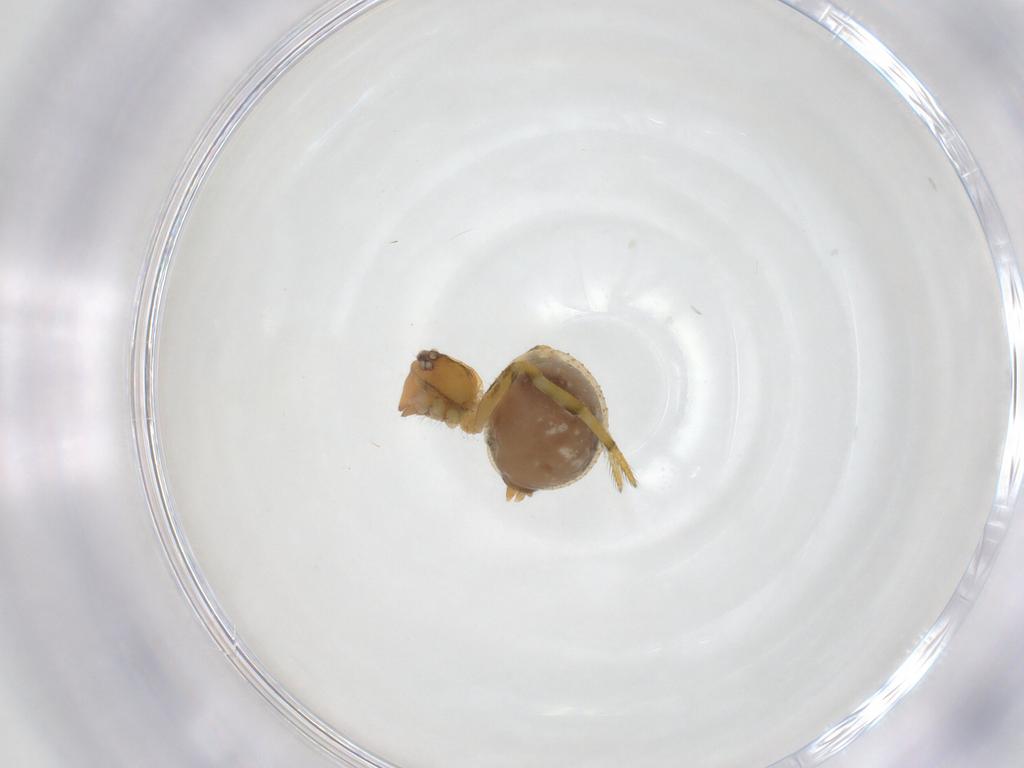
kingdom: Animalia
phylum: Arthropoda
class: Arachnida
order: Araneae
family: Theridiidae
